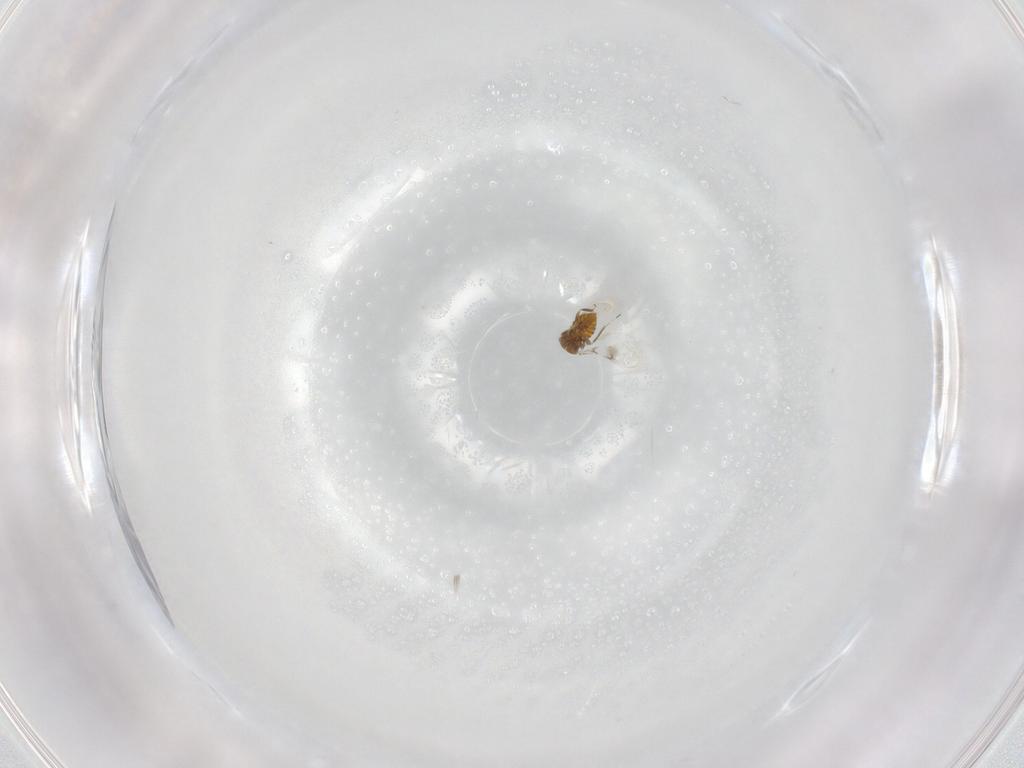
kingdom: Animalia
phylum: Arthropoda
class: Insecta
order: Hymenoptera
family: Trichogrammatidae
